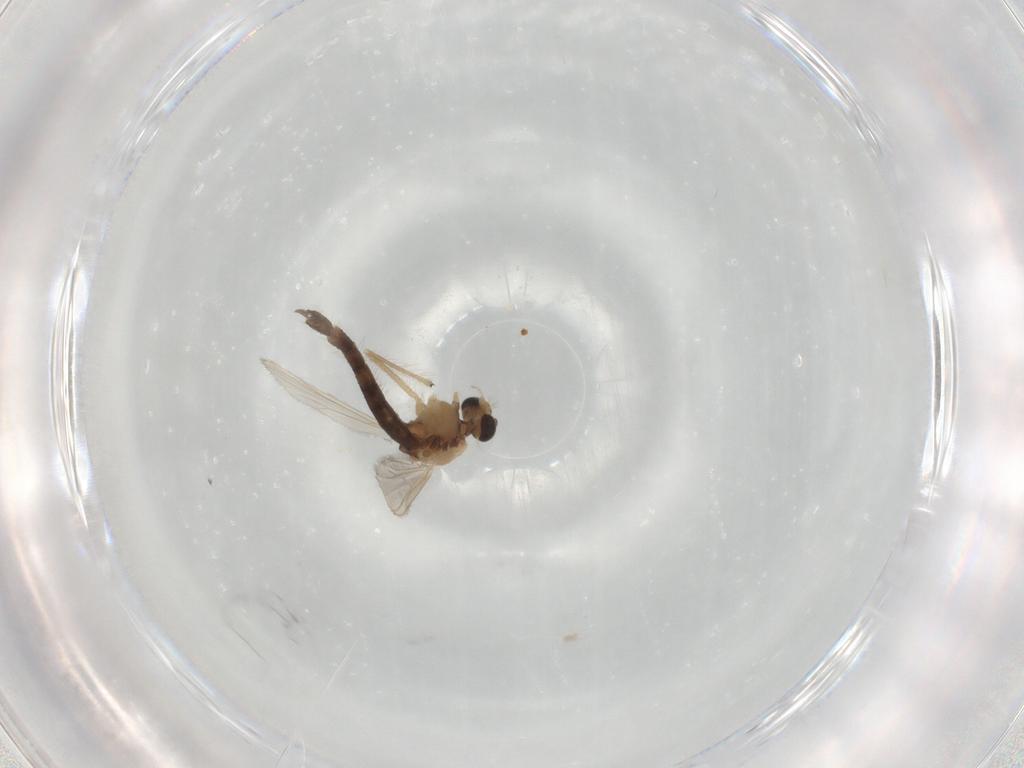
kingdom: Animalia
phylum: Arthropoda
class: Insecta
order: Diptera
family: Chironomidae
